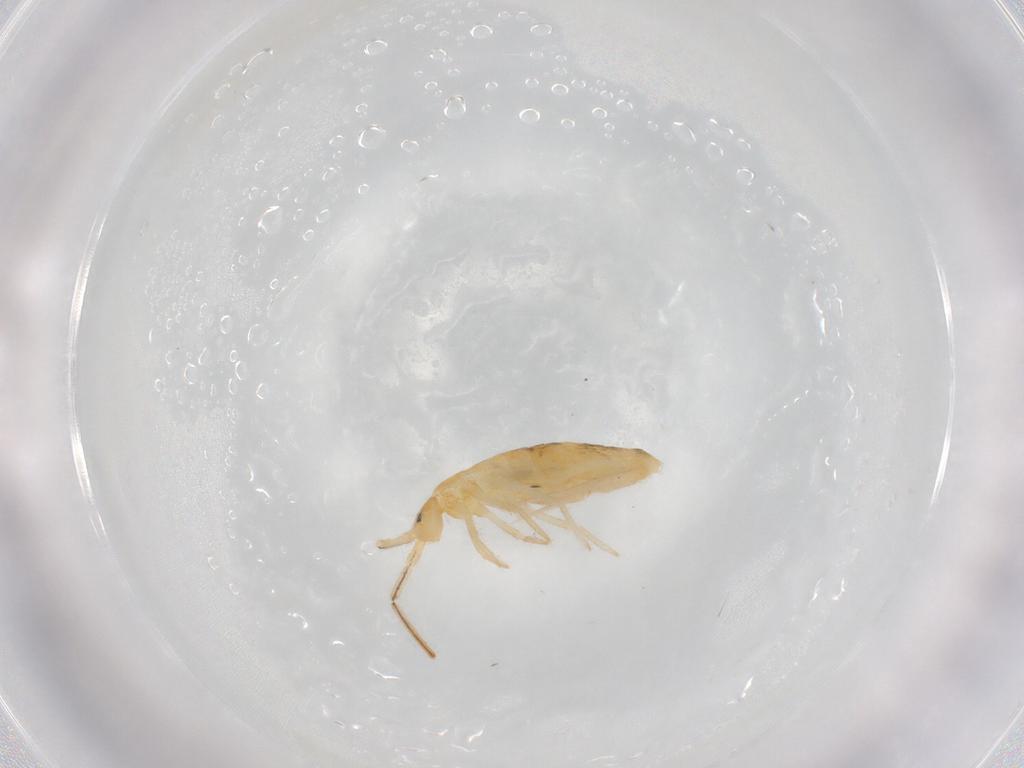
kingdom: Animalia
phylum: Arthropoda
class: Collembola
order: Entomobryomorpha
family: Entomobryidae
